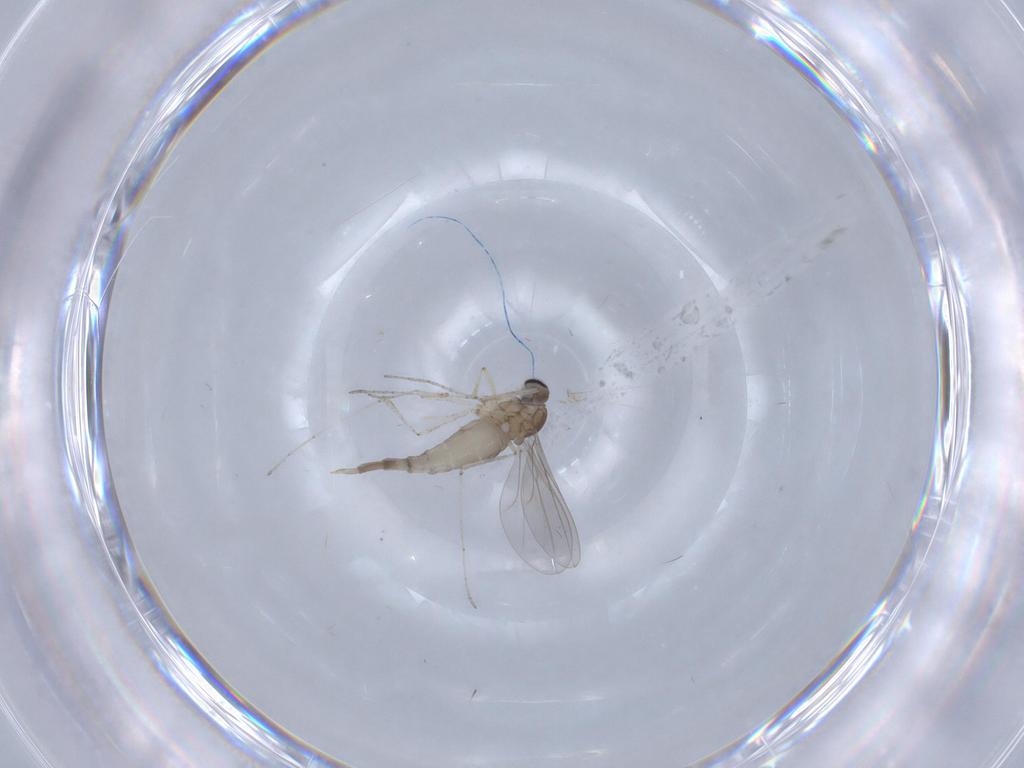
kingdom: Animalia
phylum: Arthropoda
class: Insecta
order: Diptera
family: Cecidomyiidae
